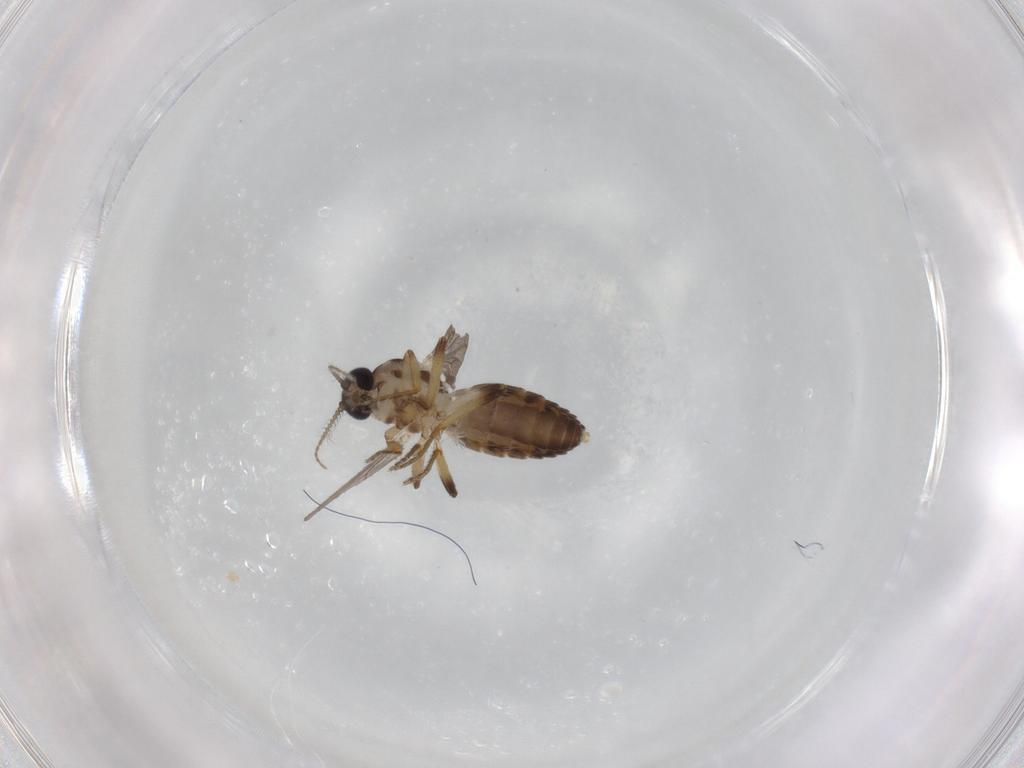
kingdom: Animalia
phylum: Arthropoda
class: Insecta
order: Diptera
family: Ceratopogonidae
